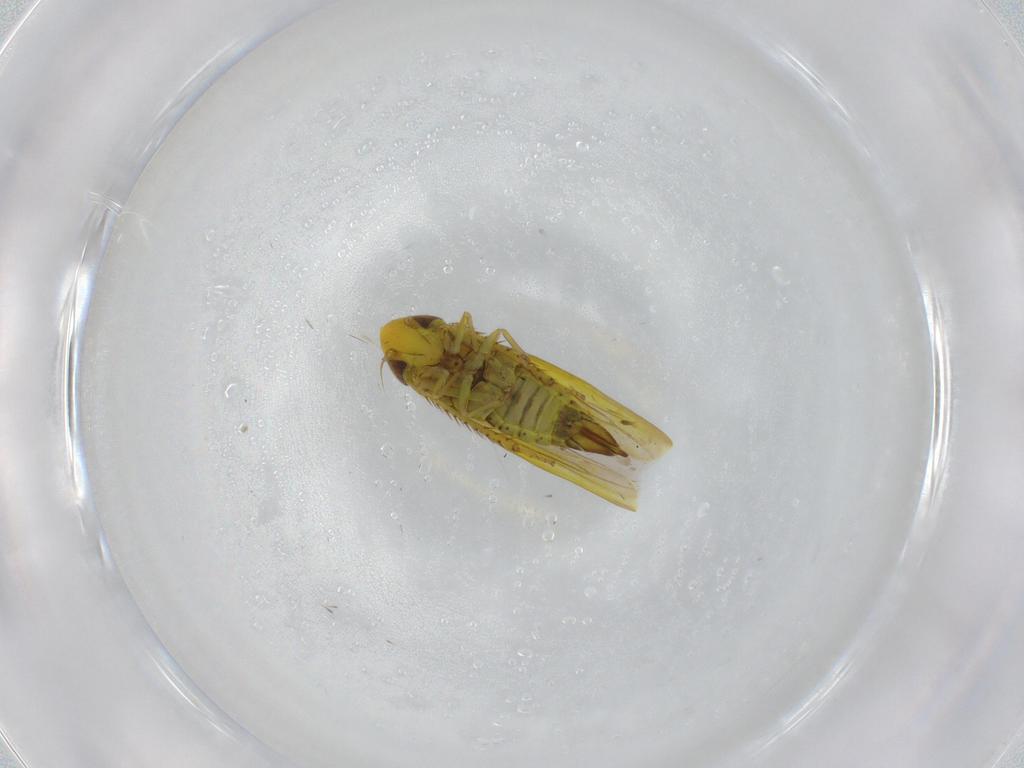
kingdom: Animalia
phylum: Arthropoda
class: Insecta
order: Hemiptera
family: Cicadellidae
